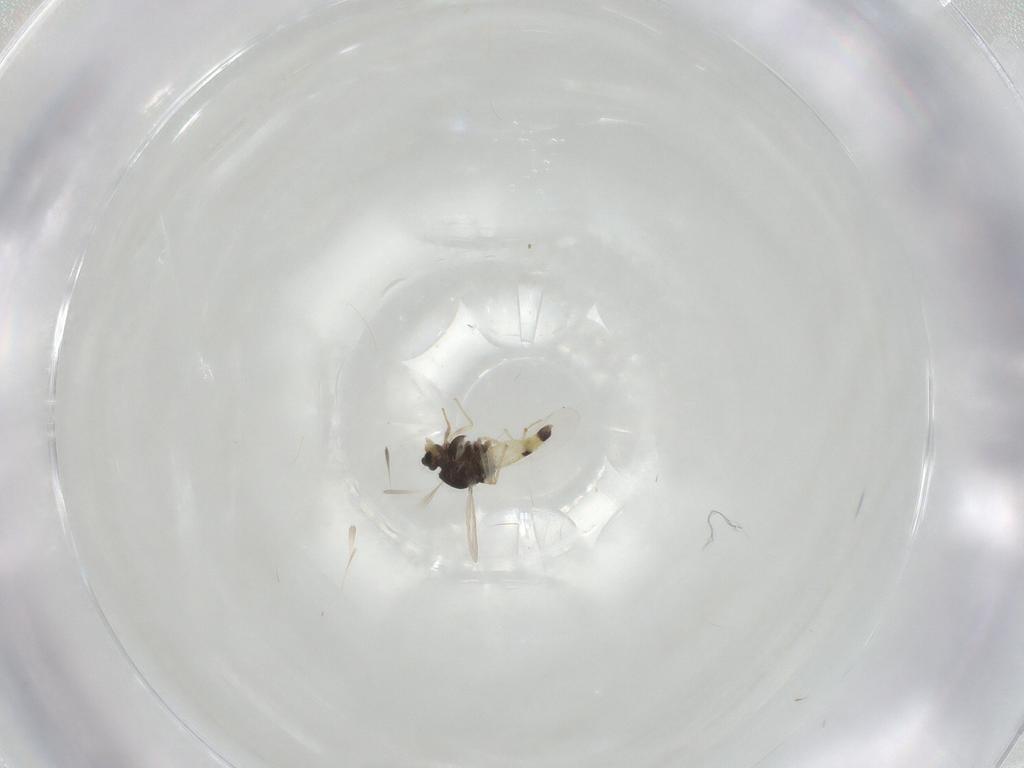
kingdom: Animalia
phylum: Arthropoda
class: Insecta
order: Diptera
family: Chironomidae
